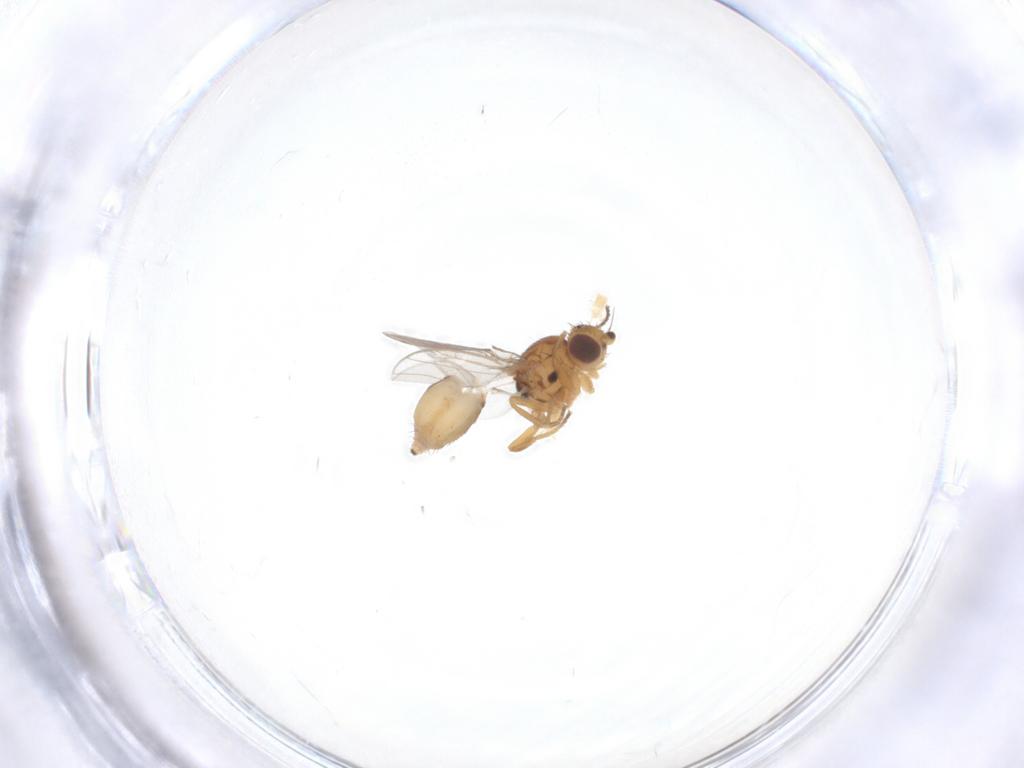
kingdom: Animalia
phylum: Arthropoda
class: Insecta
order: Diptera
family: Chloropidae
